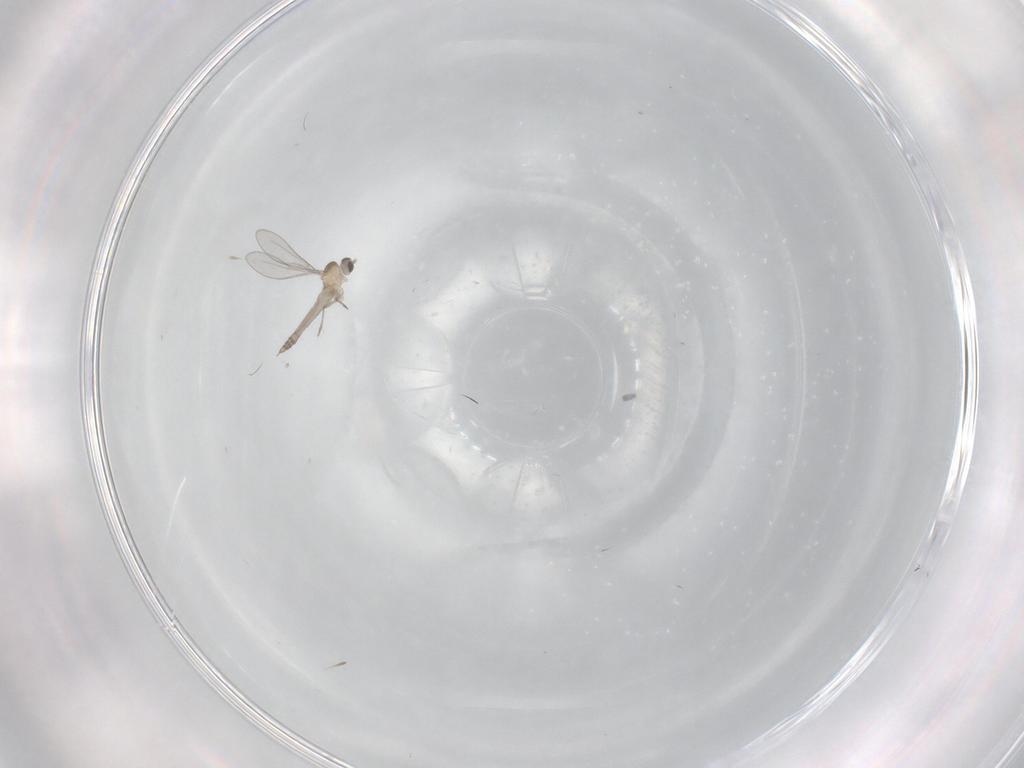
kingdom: Animalia
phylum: Arthropoda
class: Insecta
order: Diptera
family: Cecidomyiidae
